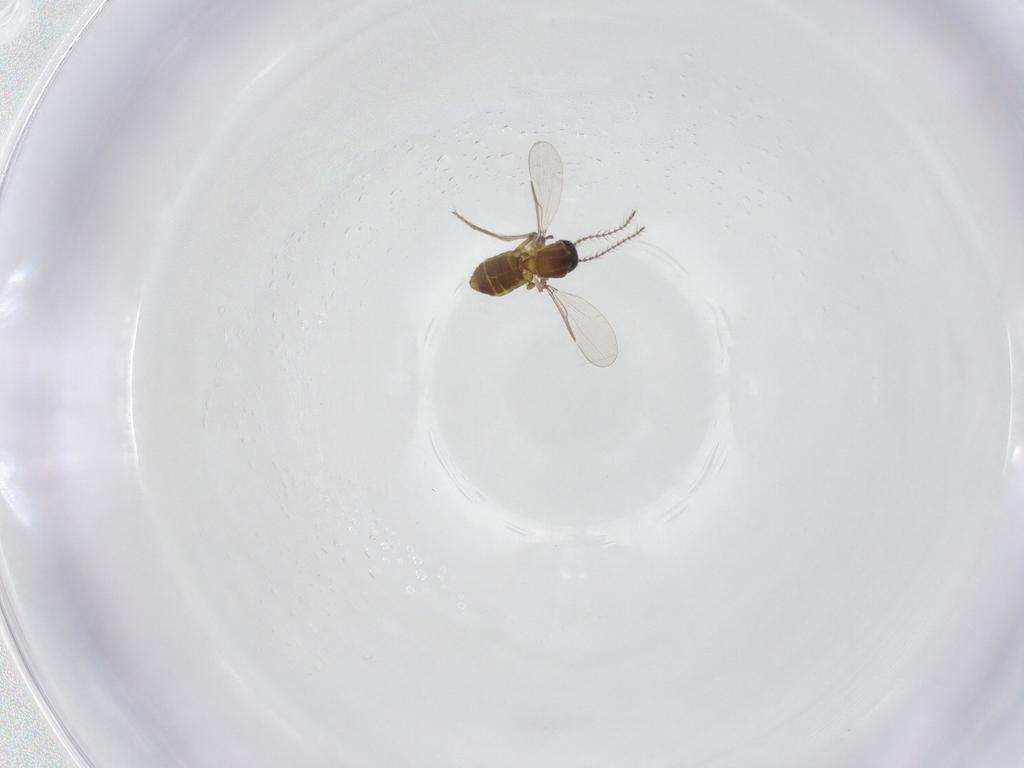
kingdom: Animalia
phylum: Arthropoda
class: Insecta
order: Diptera
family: Ceratopogonidae
